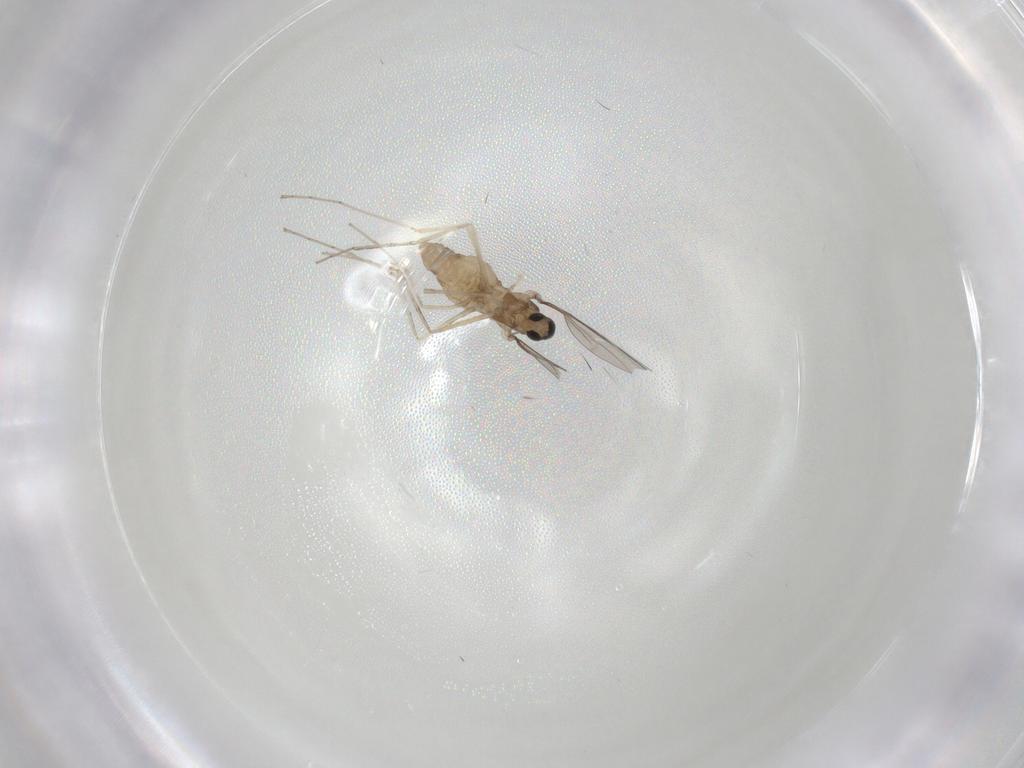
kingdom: Animalia
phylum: Arthropoda
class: Insecta
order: Diptera
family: Cecidomyiidae
